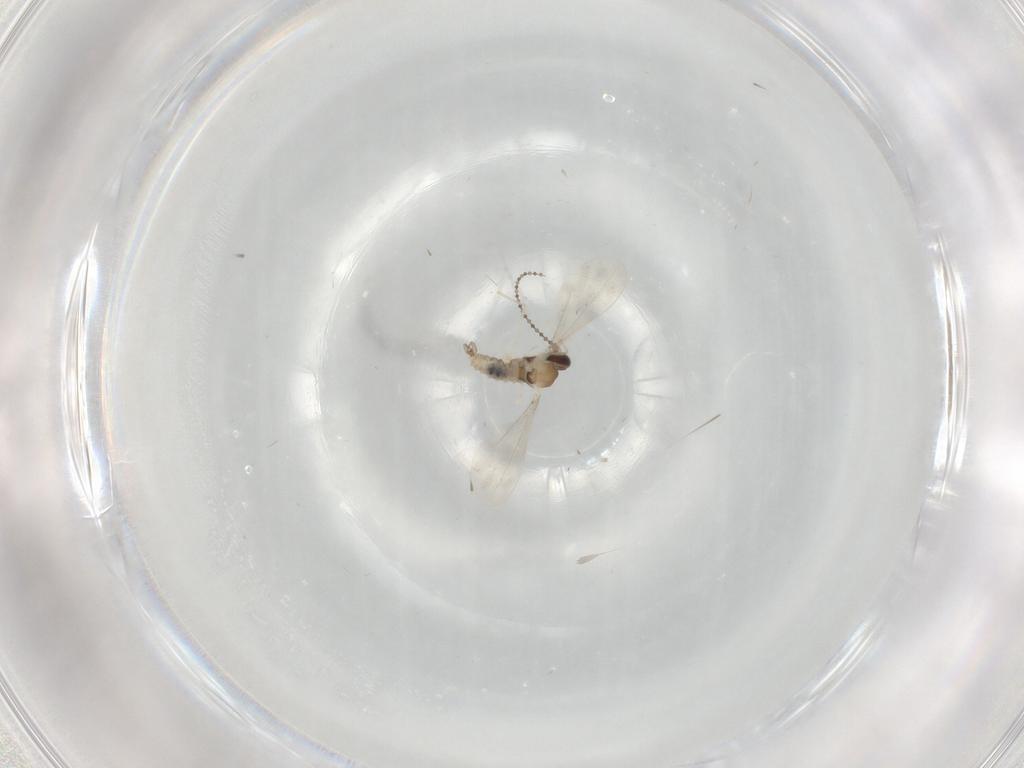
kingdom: Animalia
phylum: Arthropoda
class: Insecta
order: Diptera
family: Cecidomyiidae
